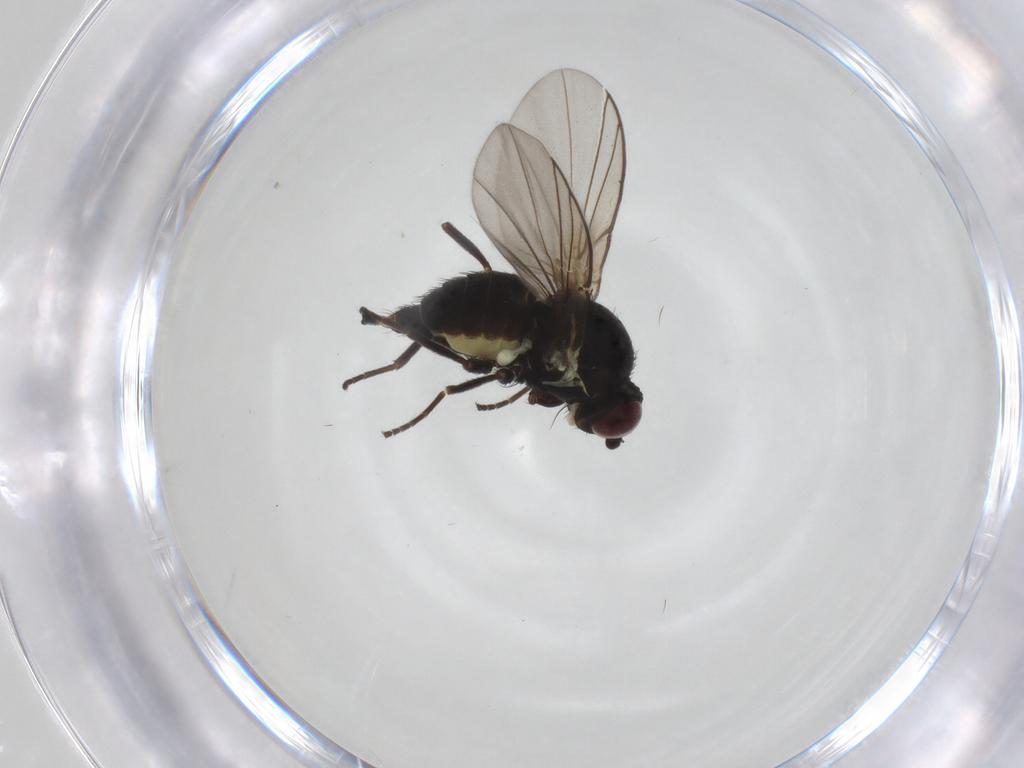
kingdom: Animalia
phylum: Arthropoda
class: Insecta
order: Diptera
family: Agromyzidae
